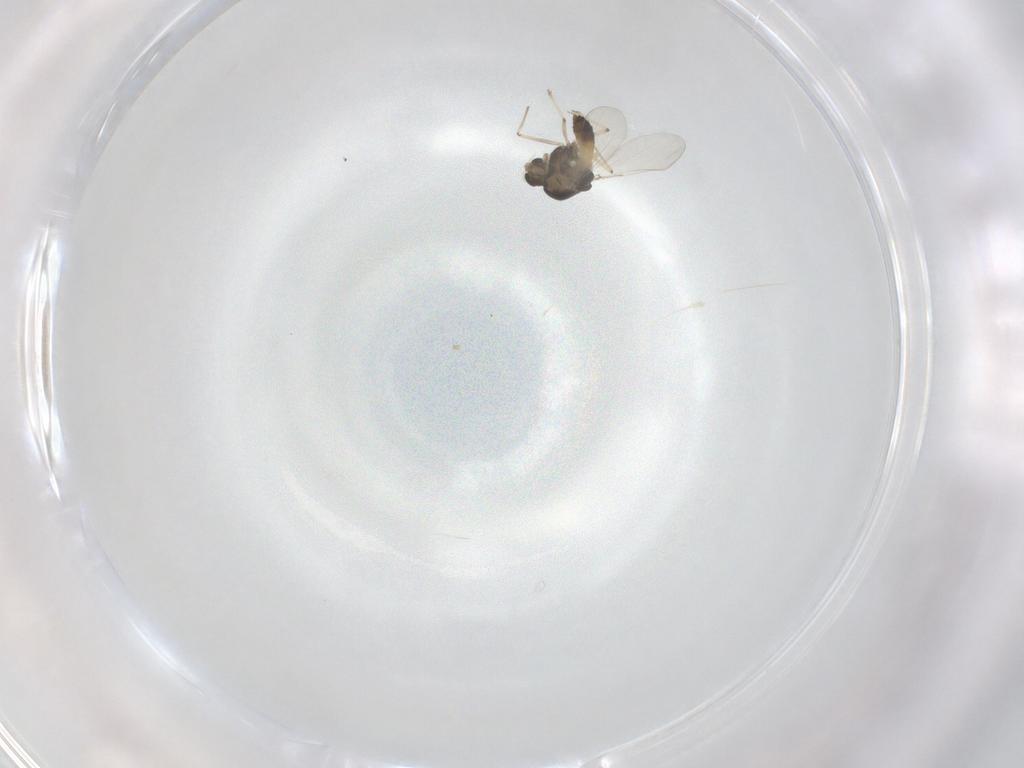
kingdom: Animalia
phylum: Arthropoda
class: Insecta
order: Diptera
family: Chironomidae
